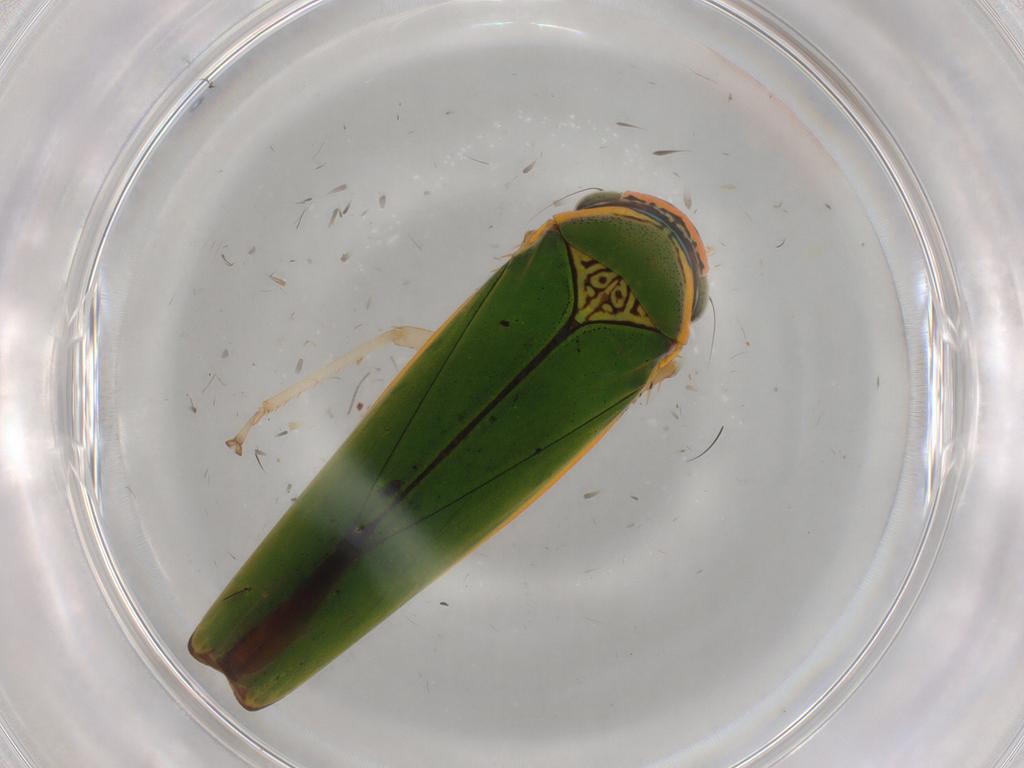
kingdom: Animalia
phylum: Arthropoda
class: Insecta
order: Hemiptera
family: Cicadellidae
